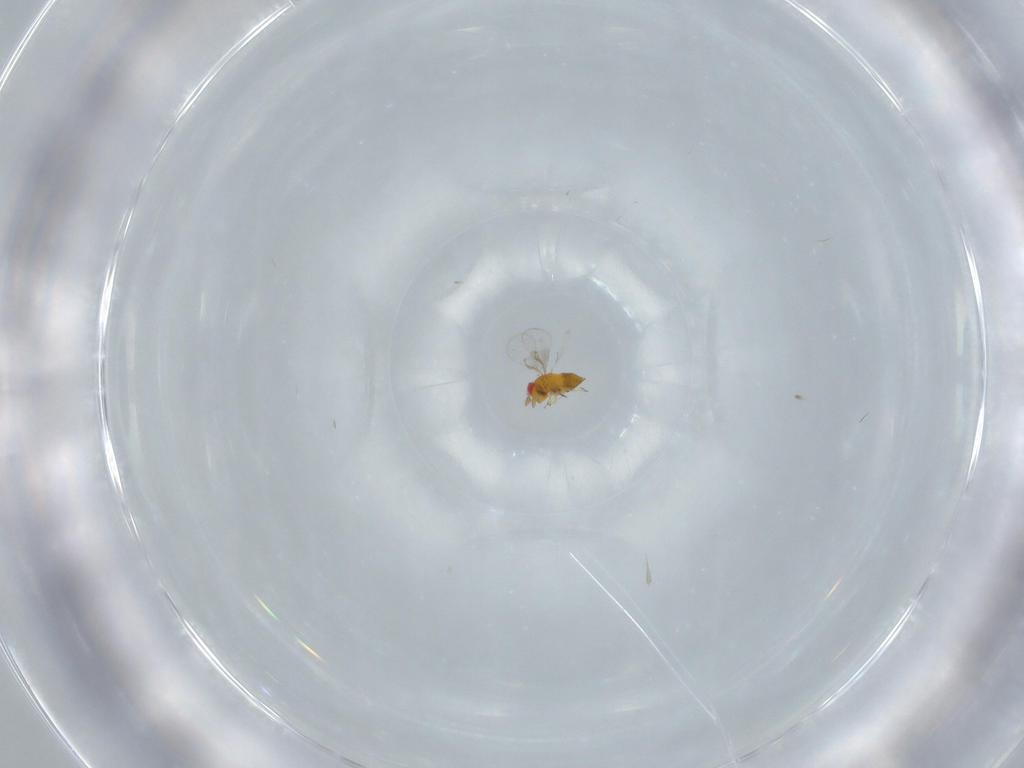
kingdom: Animalia
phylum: Arthropoda
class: Insecta
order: Hymenoptera
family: Trichogrammatidae
